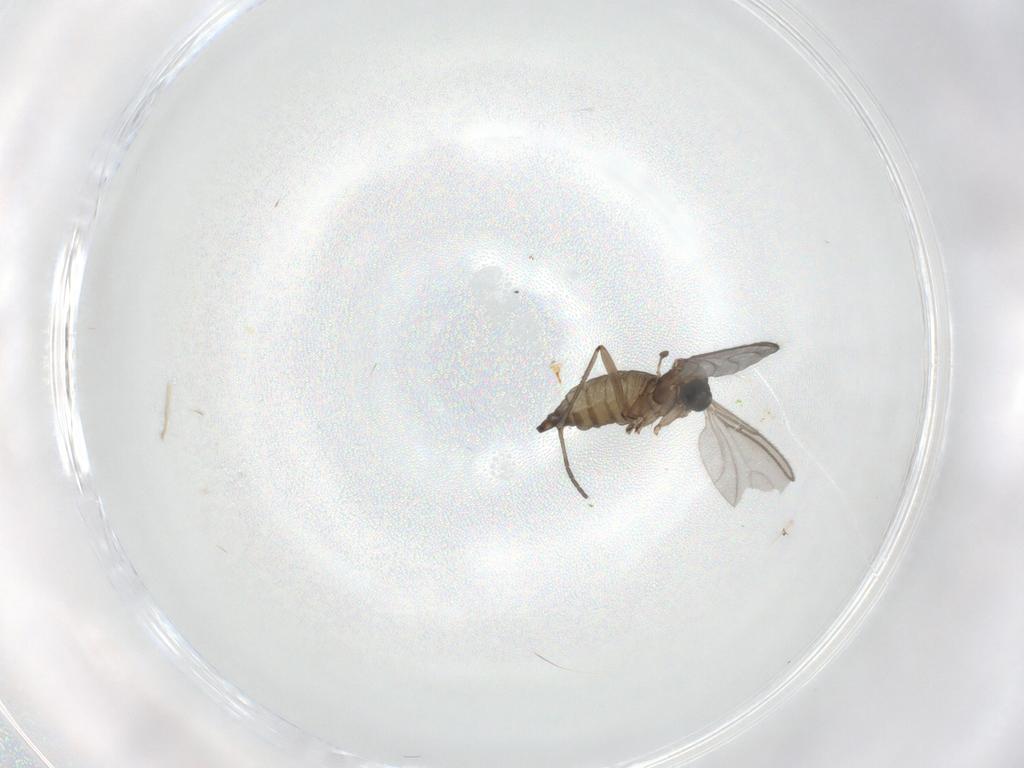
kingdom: Animalia
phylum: Arthropoda
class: Insecta
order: Diptera
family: Sciaridae
